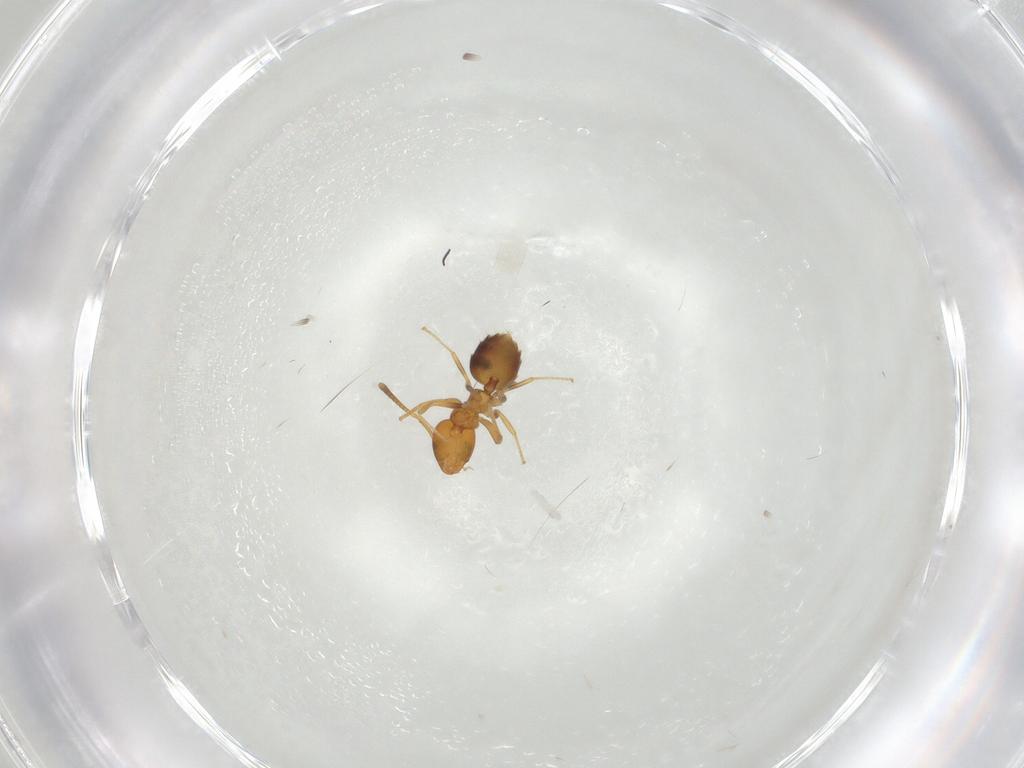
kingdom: Animalia
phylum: Arthropoda
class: Insecta
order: Hymenoptera
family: Formicidae
